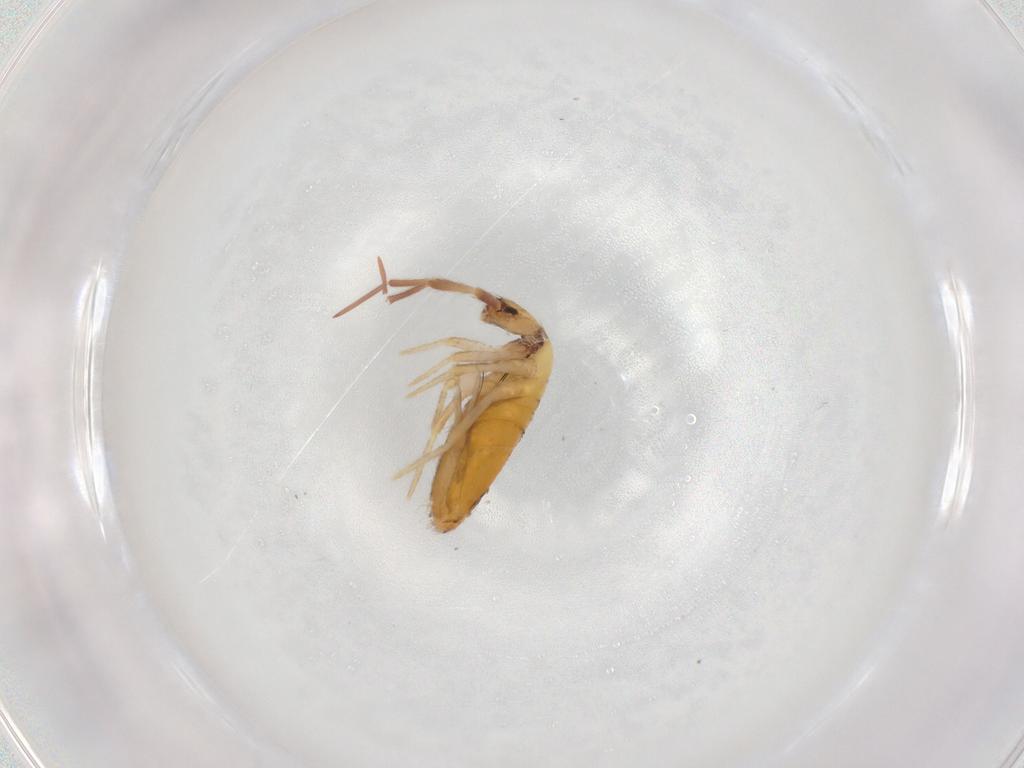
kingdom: Animalia
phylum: Arthropoda
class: Collembola
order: Entomobryomorpha
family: Entomobryidae
